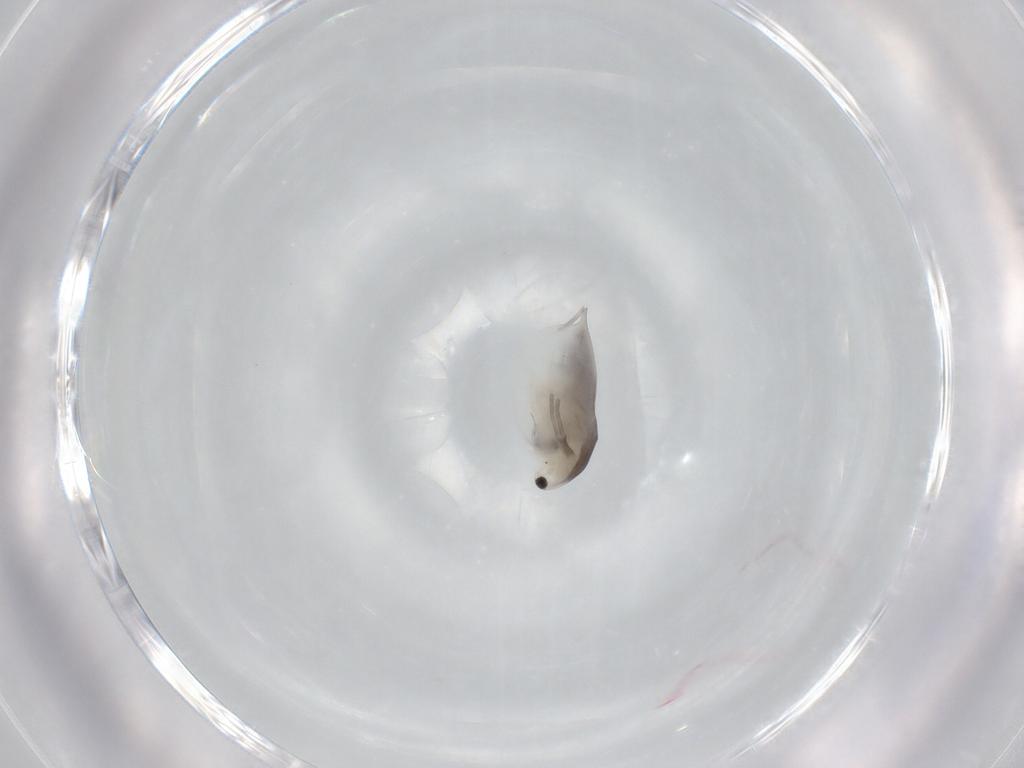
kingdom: Animalia
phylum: Arthropoda
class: Branchiopoda
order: Diplostraca
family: Daphniidae
